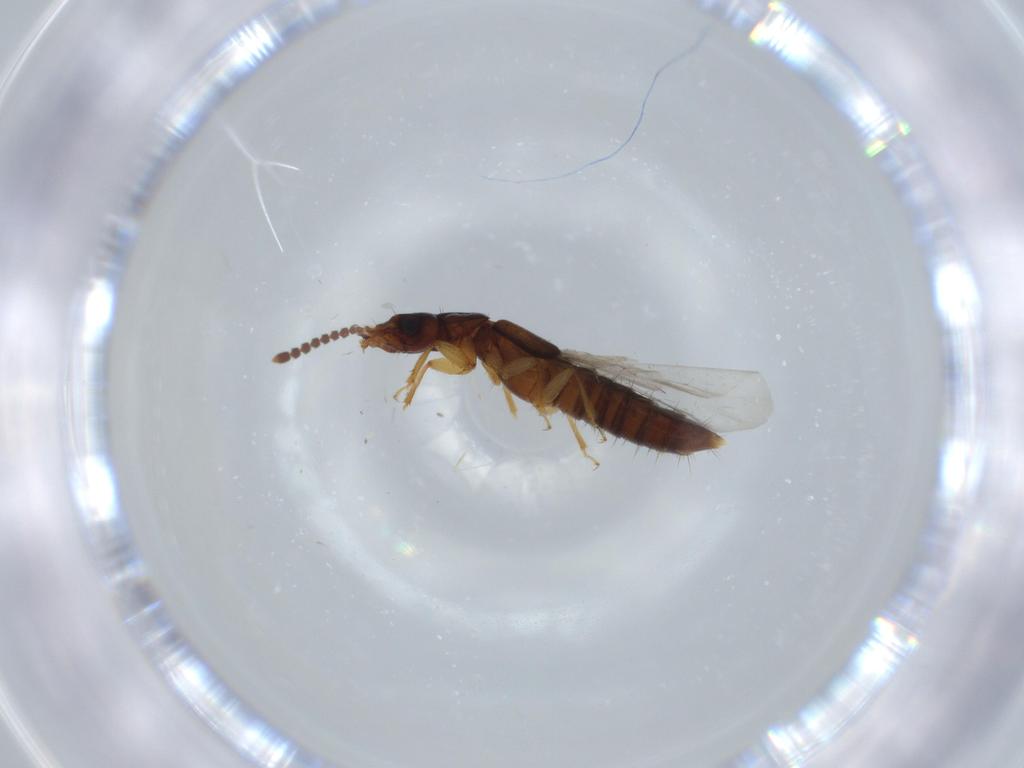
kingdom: Animalia
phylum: Arthropoda
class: Insecta
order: Coleoptera
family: Staphylinidae
